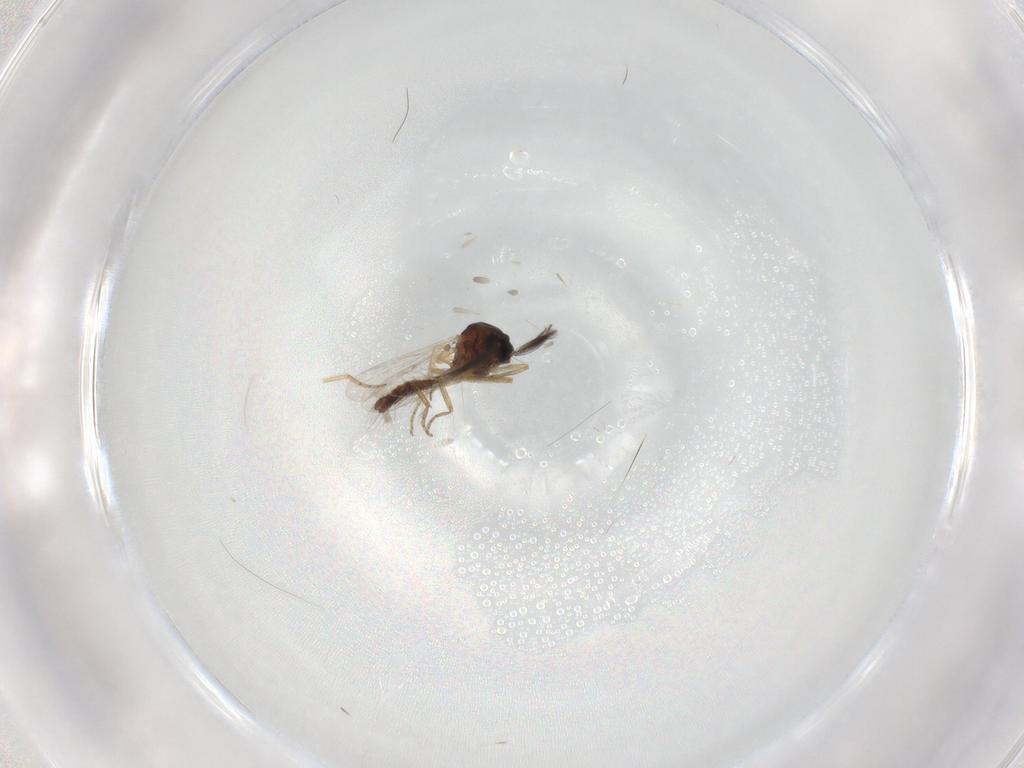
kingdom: Animalia
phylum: Arthropoda
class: Insecta
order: Diptera
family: Ceratopogonidae
